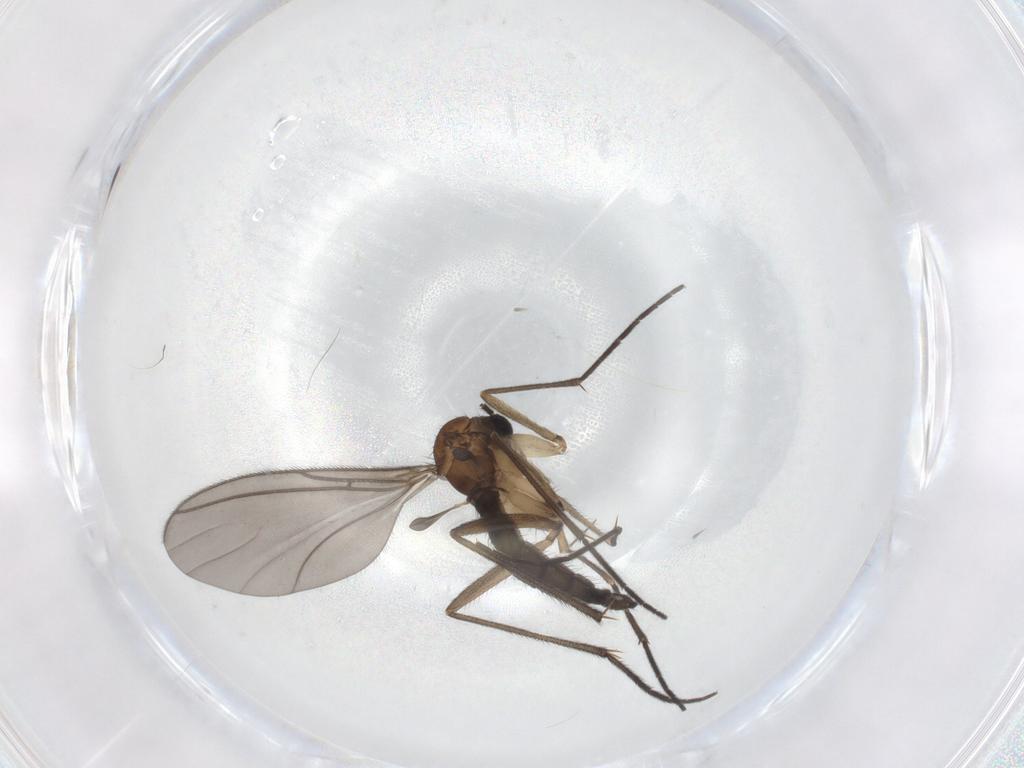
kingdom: Animalia
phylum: Arthropoda
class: Insecta
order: Diptera
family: Sciaridae
